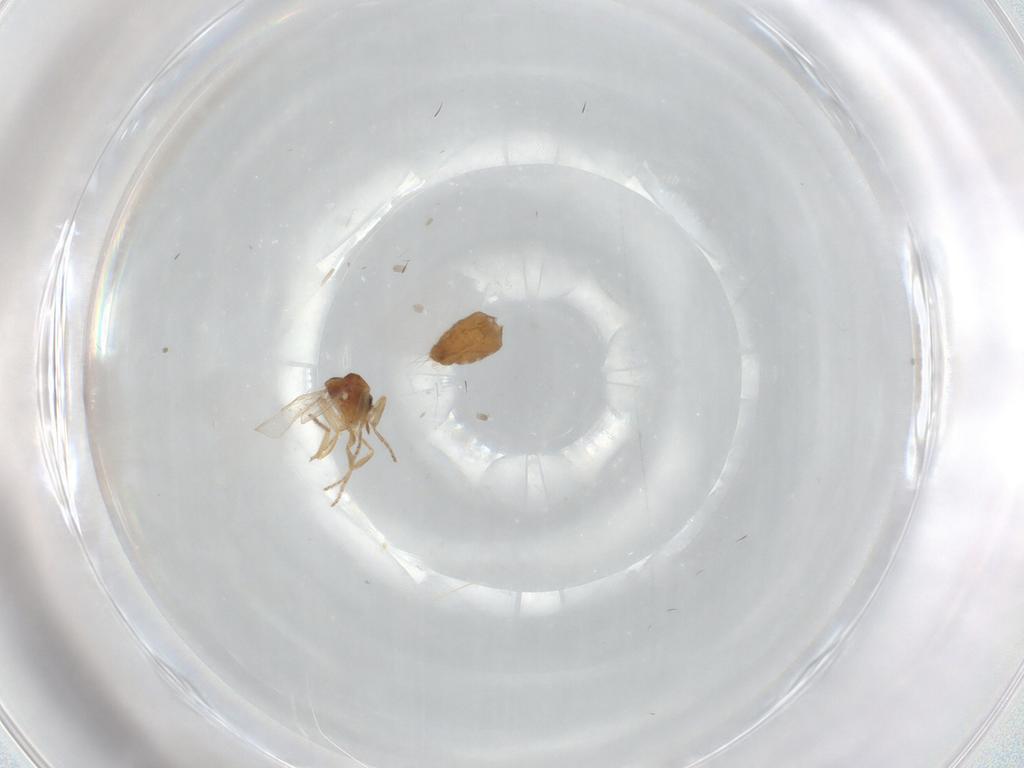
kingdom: Animalia
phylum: Arthropoda
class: Insecta
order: Diptera
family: Ceratopogonidae
